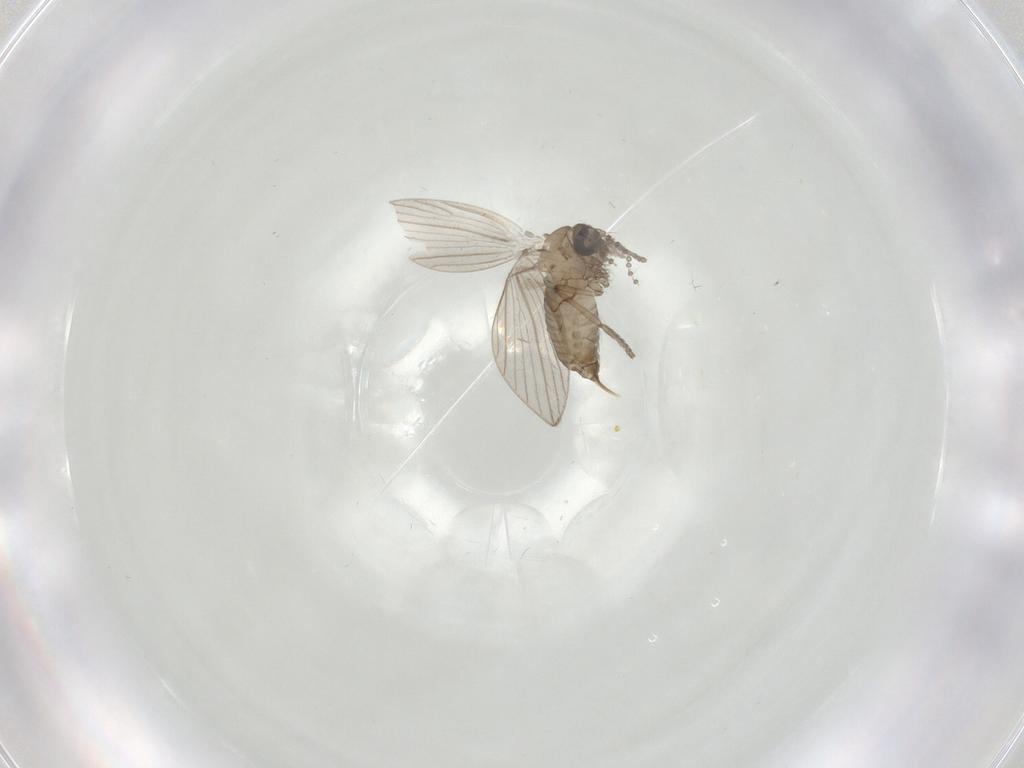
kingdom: Animalia
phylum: Arthropoda
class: Insecta
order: Diptera
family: Psychodidae
